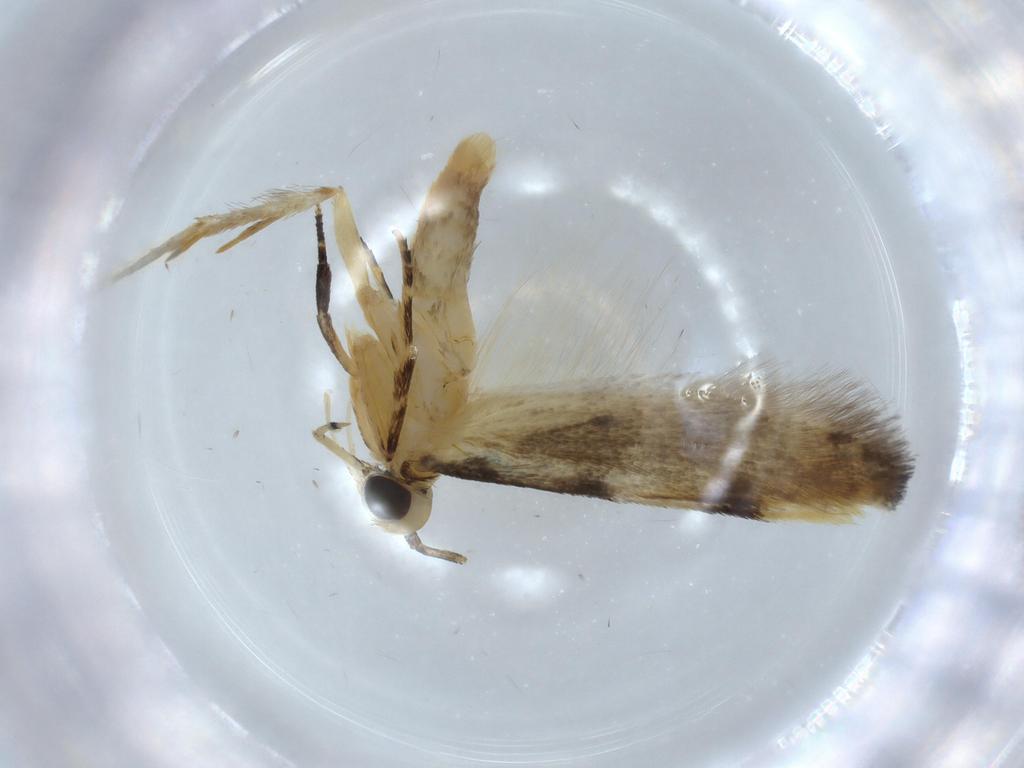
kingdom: Animalia
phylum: Arthropoda
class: Insecta
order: Lepidoptera
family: Autostichidae
